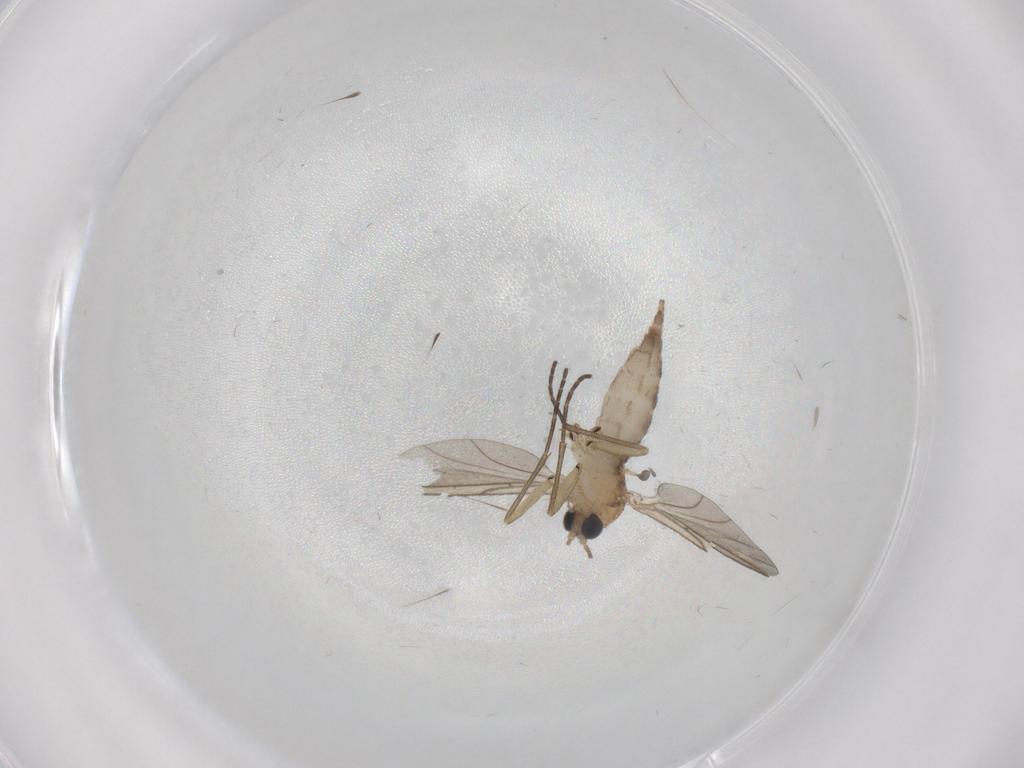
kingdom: Animalia
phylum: Arthropoda
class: Insecta
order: Diptera
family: Sciaridae
